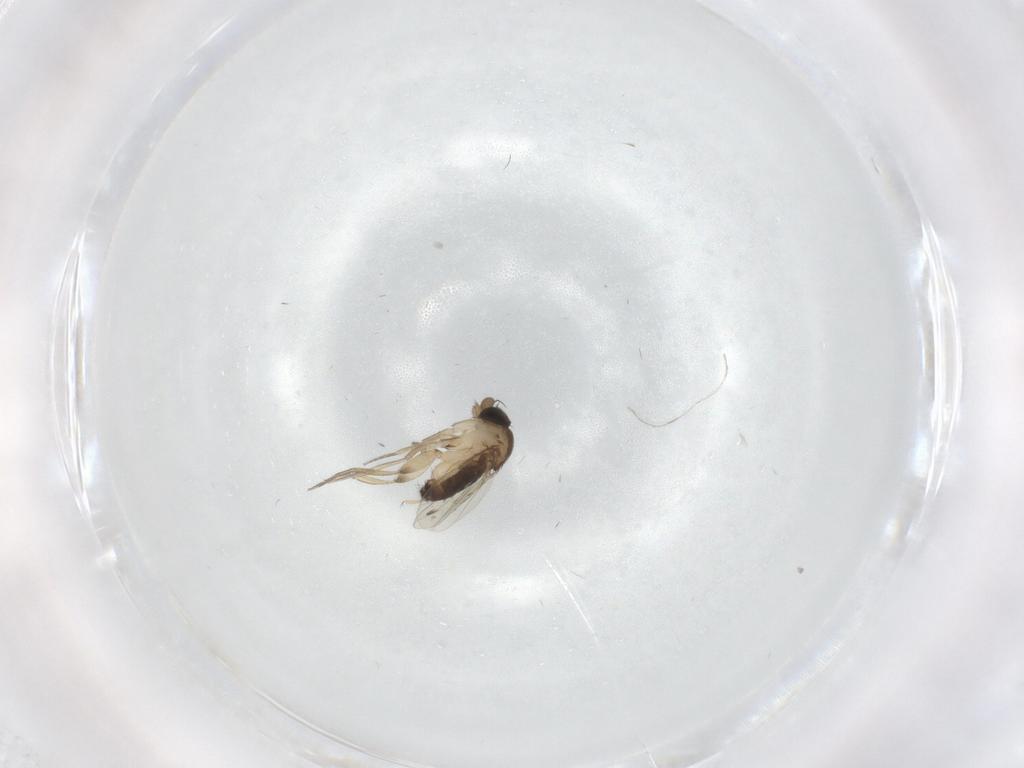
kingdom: Animalia
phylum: Arthropoda
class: Insecta
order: Diptera
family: Phoridae
